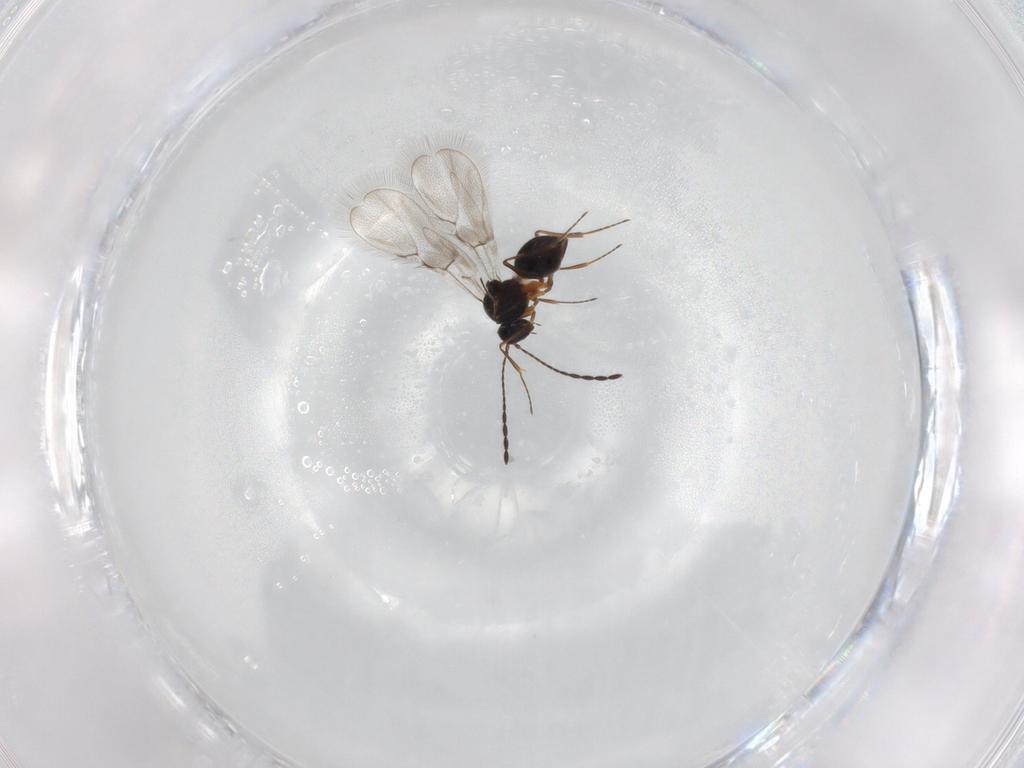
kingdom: Animalia
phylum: Arthropoda
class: Insecta
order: Hymenoptera
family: Figitidae
